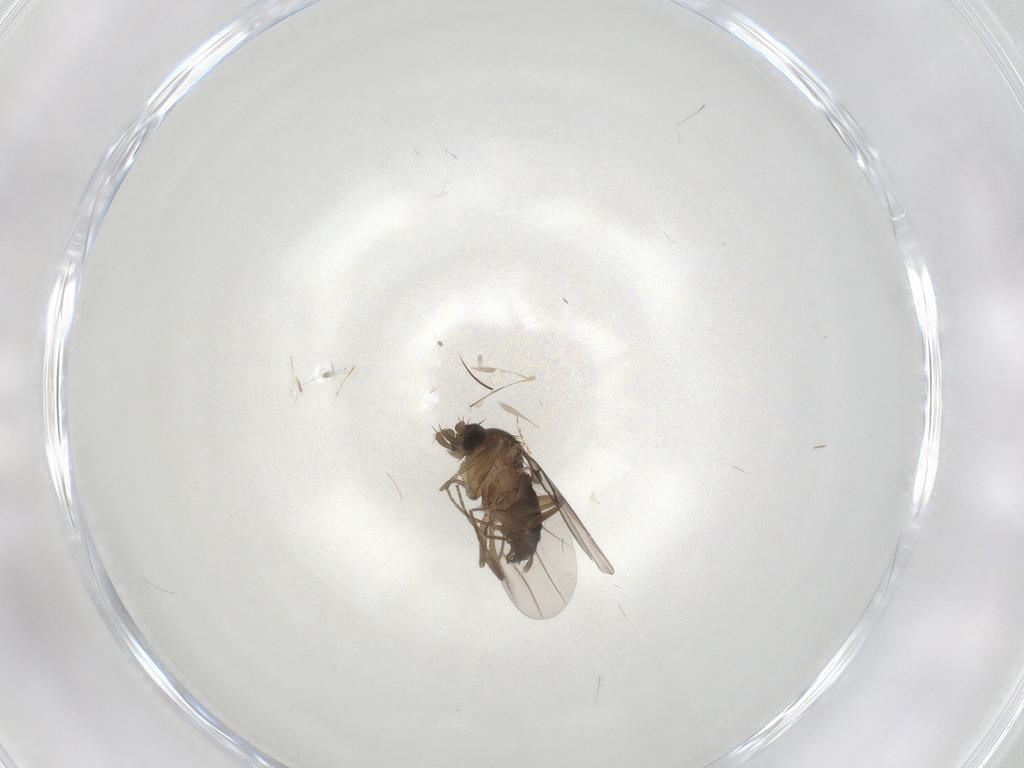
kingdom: Animalia
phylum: Arthropoda
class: Insecta
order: Diptera
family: Phoridae
